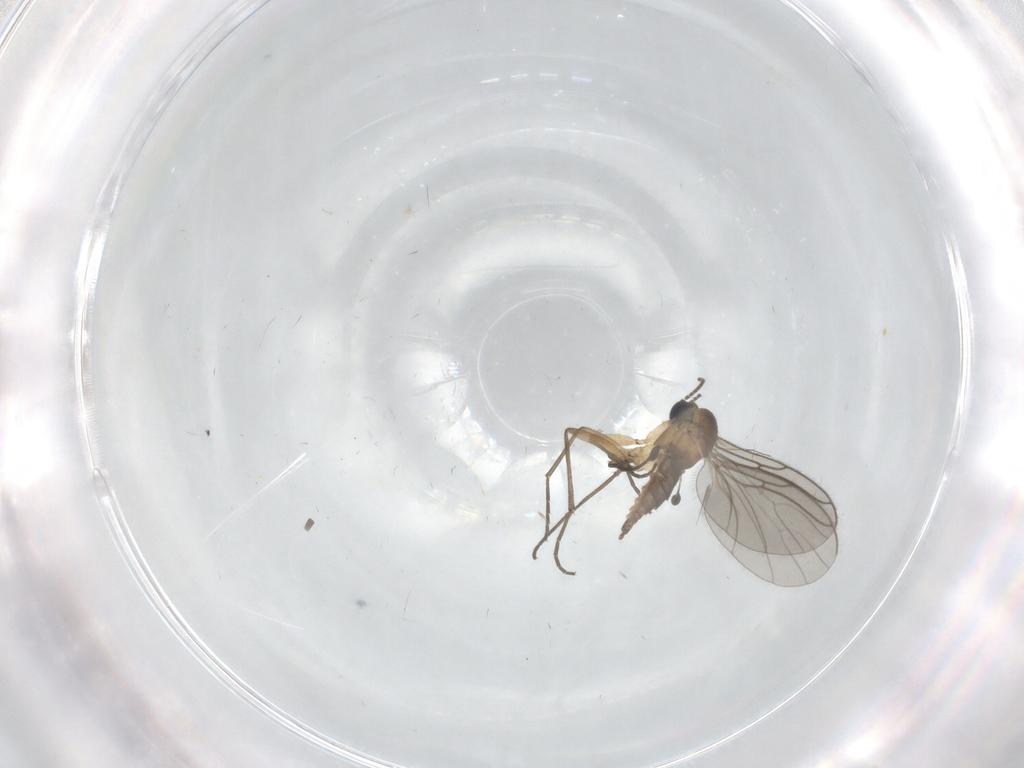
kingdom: Animalia
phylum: Arthropoda
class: Insecta
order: Diptera
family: Sciaridae
